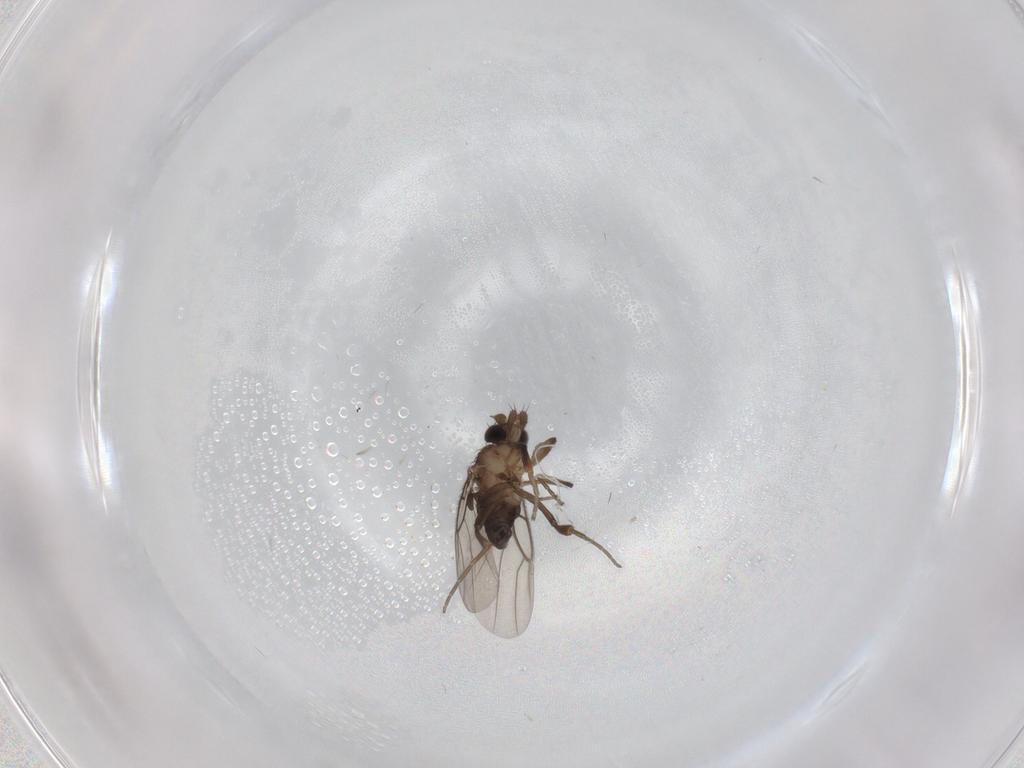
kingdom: Animalia
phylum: Arthropoda
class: Insecta
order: Diptera
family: Phoridae
